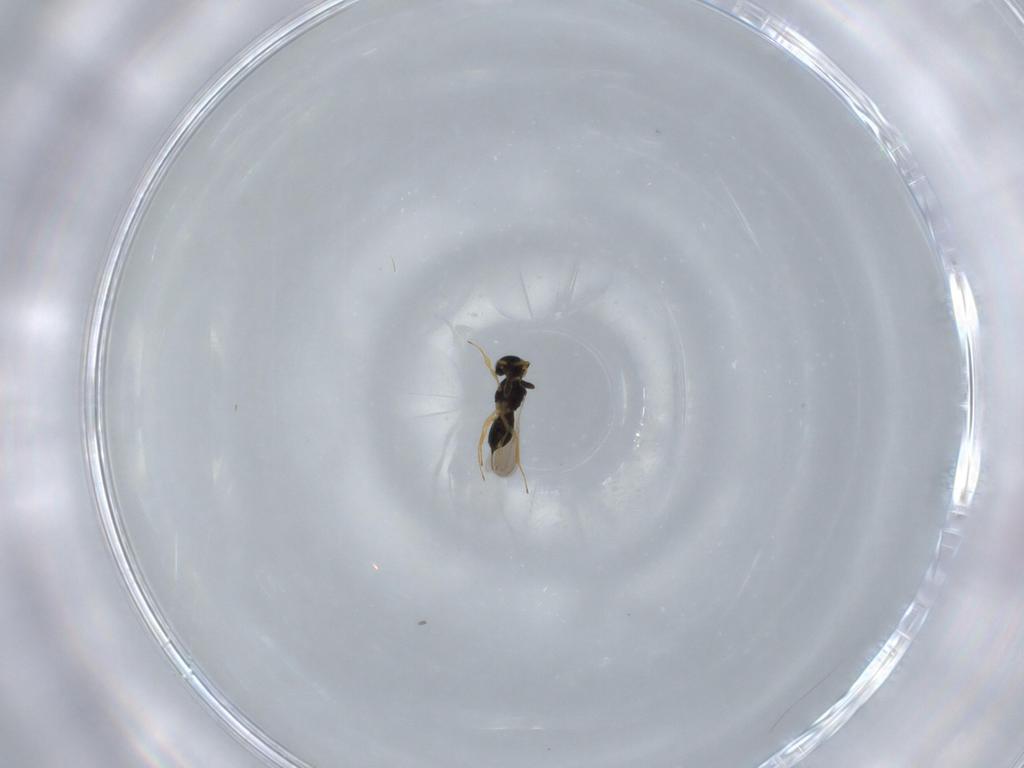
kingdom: Animalia
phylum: Arthropoda
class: Insecta
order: Hymenoptera
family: Scelionidae
